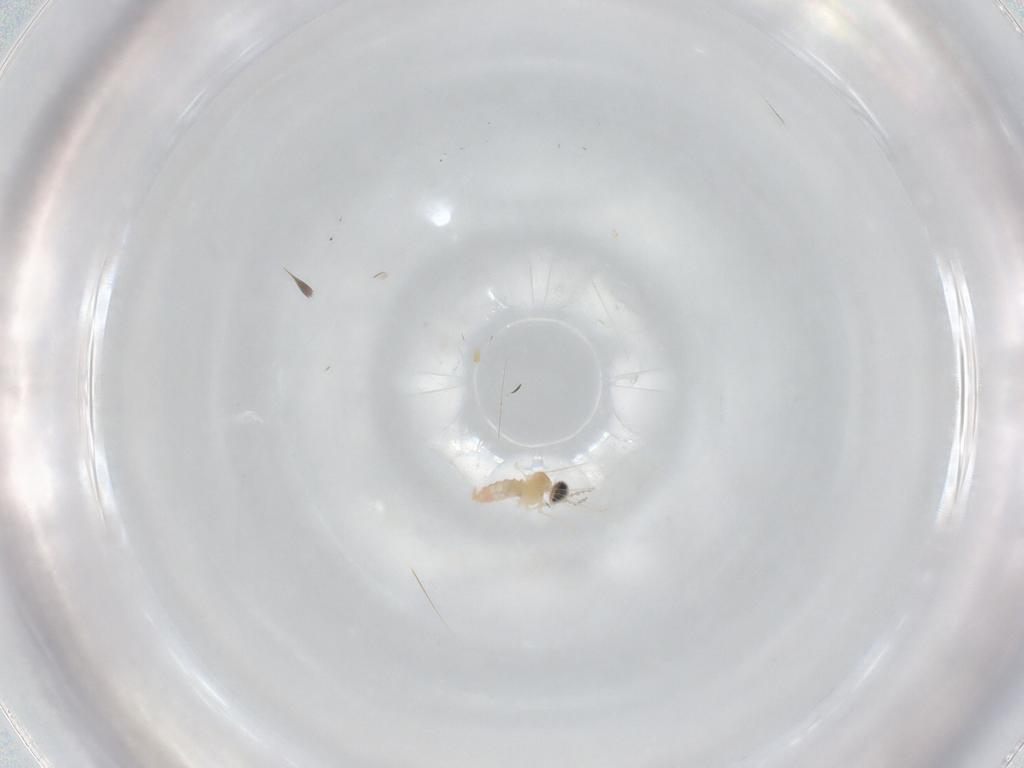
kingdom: Animalia
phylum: Arthropoda
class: Insecta
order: Diptera
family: Cecidomyiidae
